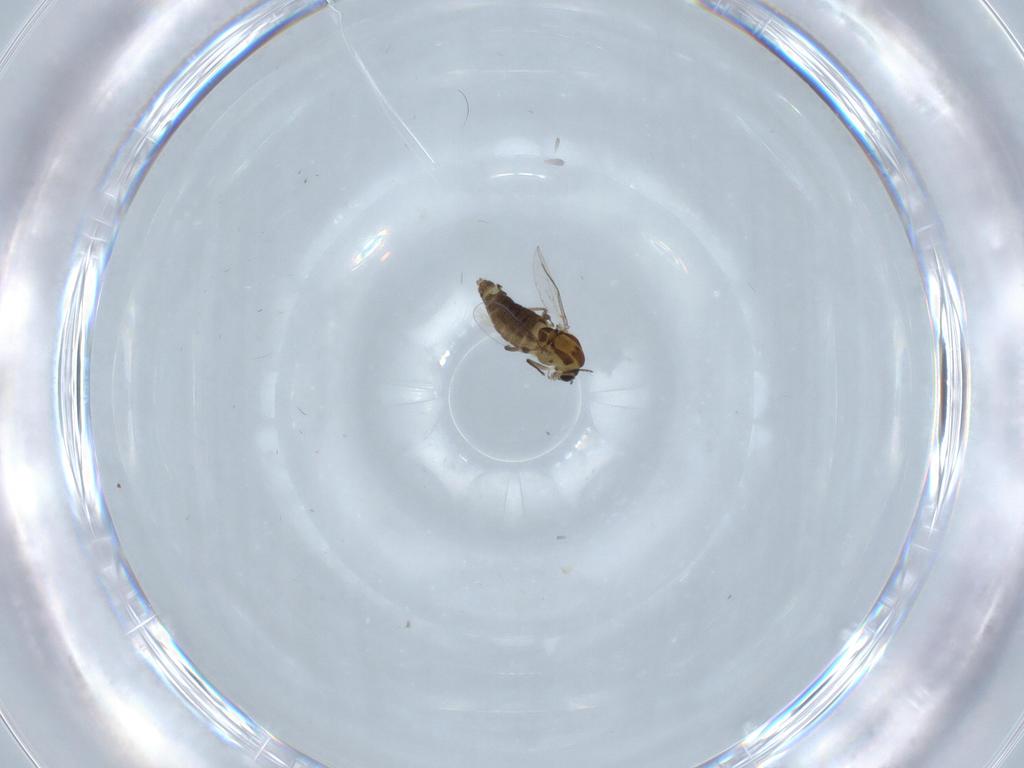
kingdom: Animalia
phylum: Arthropoda
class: Insecta
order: Diptera
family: Chironomidae
